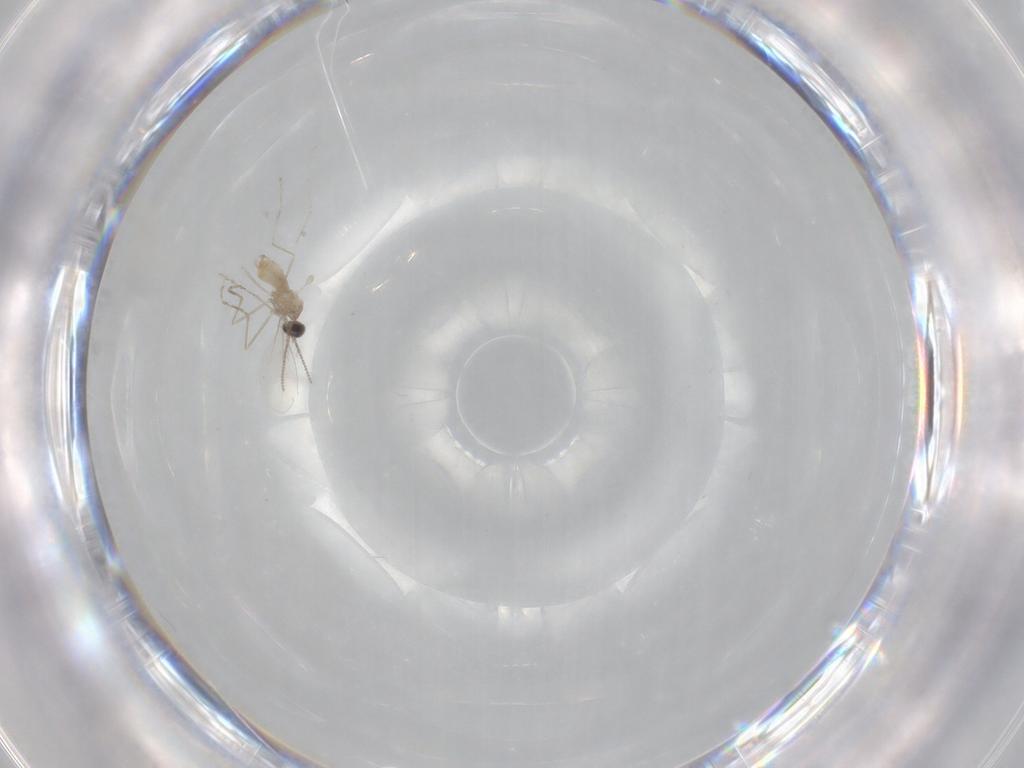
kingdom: Animalia
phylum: Arthropoda
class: Insecta
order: Diptera
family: Cecidomyiidae
